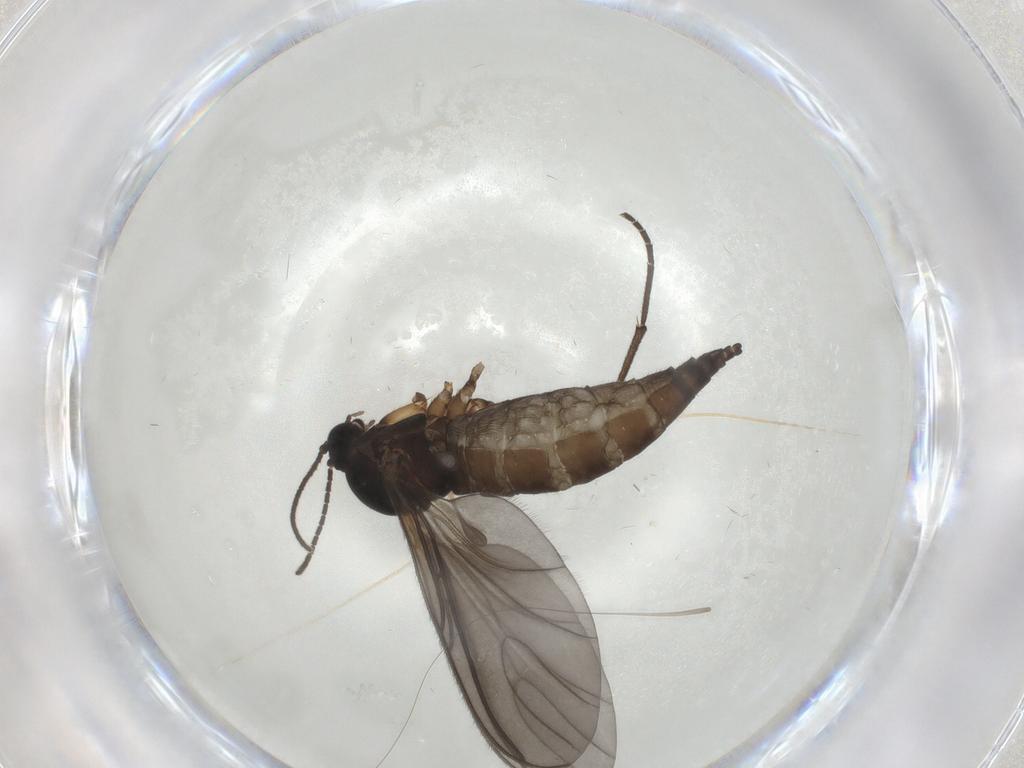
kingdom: Animalia
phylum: Arthropoda
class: Insecta
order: Diptera
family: Sciaridae
